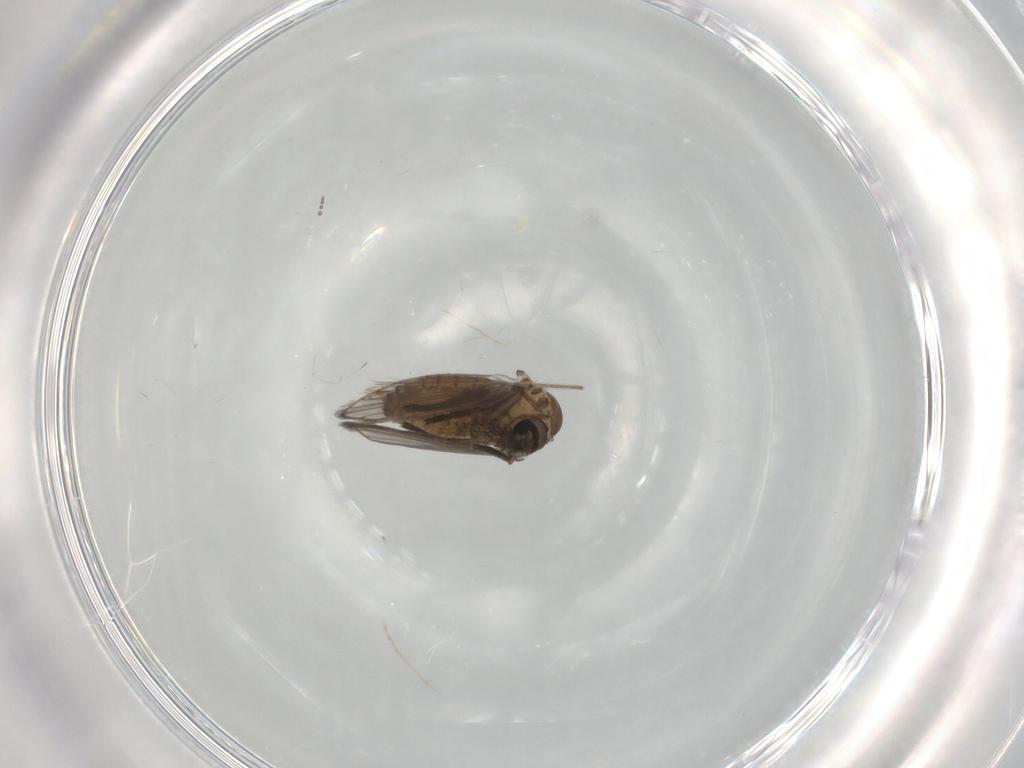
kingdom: Animalia
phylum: Arthropoda
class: Insecta
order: Diptera
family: Psychodidae
